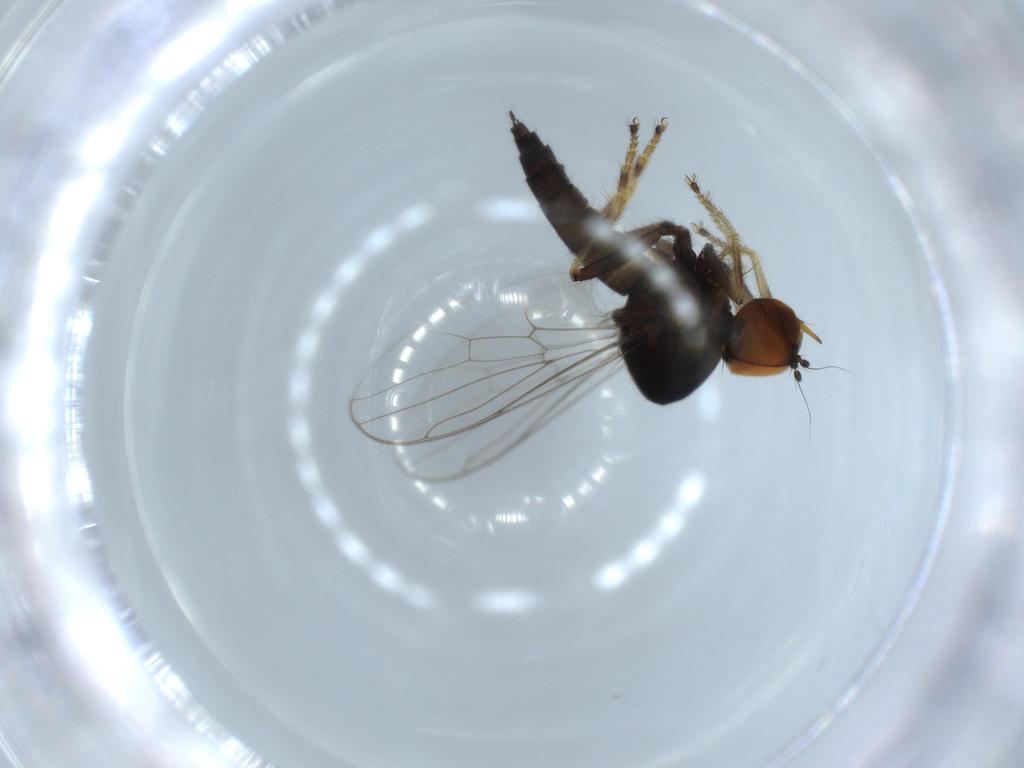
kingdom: Animalia
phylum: Arthropoda
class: Insecta
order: Diptera
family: Hybotidae
